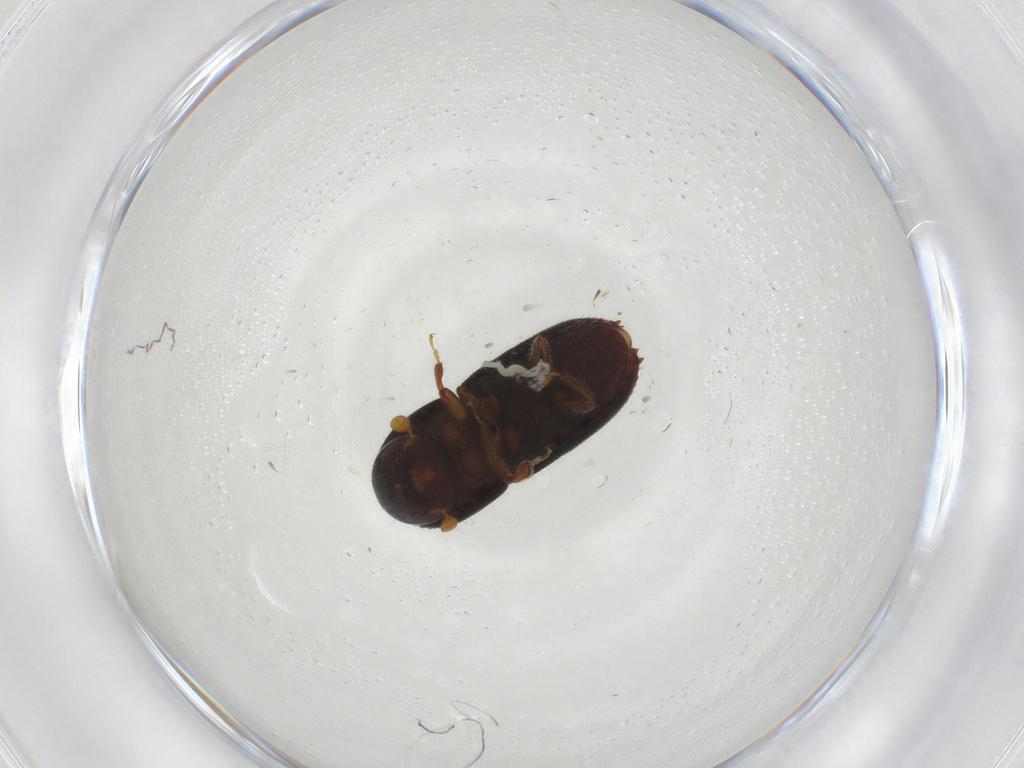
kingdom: Animalia
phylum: Arthropoda
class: Insecta
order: Coleoptera
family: Curculionidae
